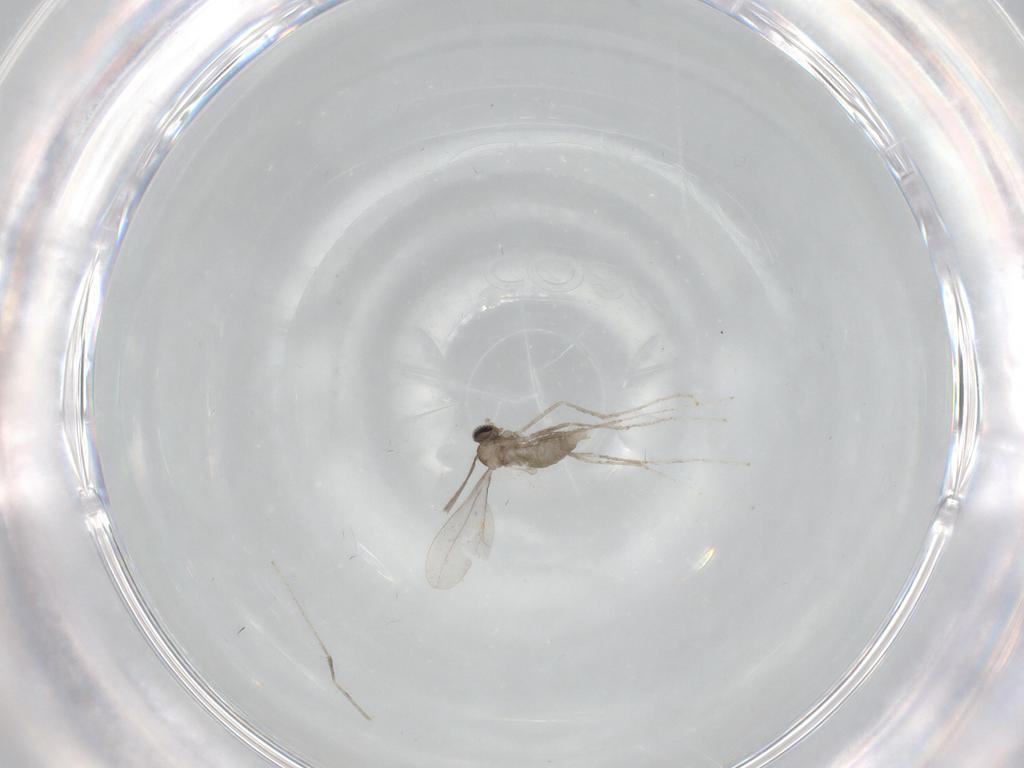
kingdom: Animalia
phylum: Arthropoda
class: Insecta
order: Diptera
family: Cecidomyiidae
